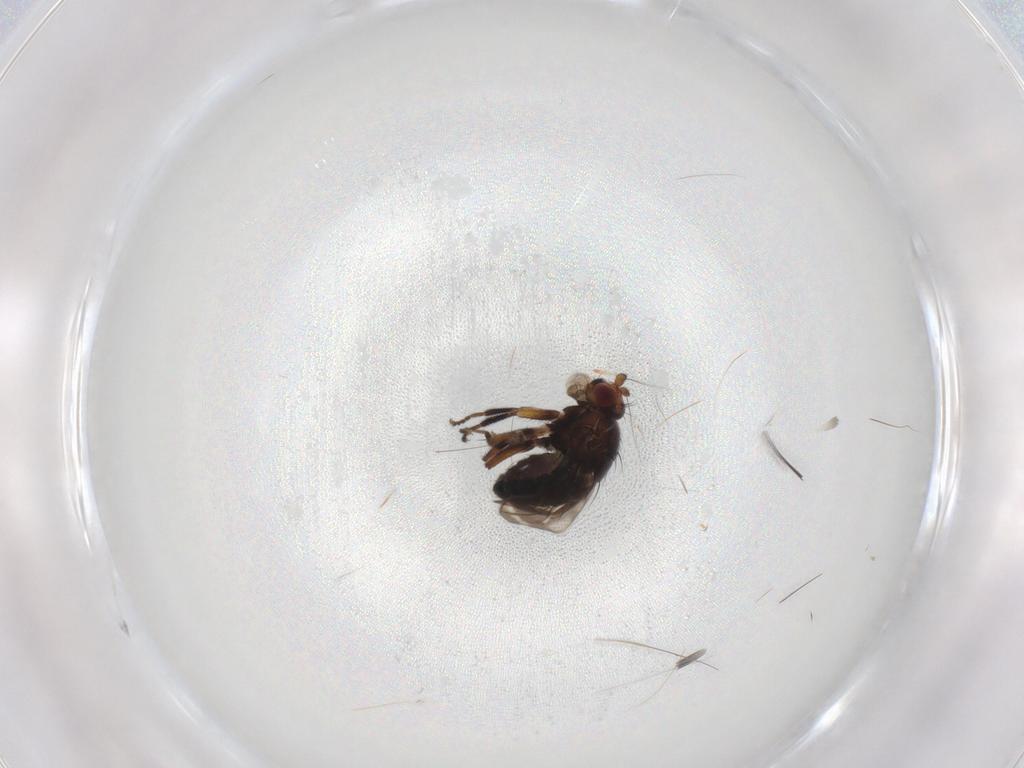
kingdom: Animalia
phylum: Arthropoda
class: Insecta
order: Diptera
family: Sphaeroceridae
